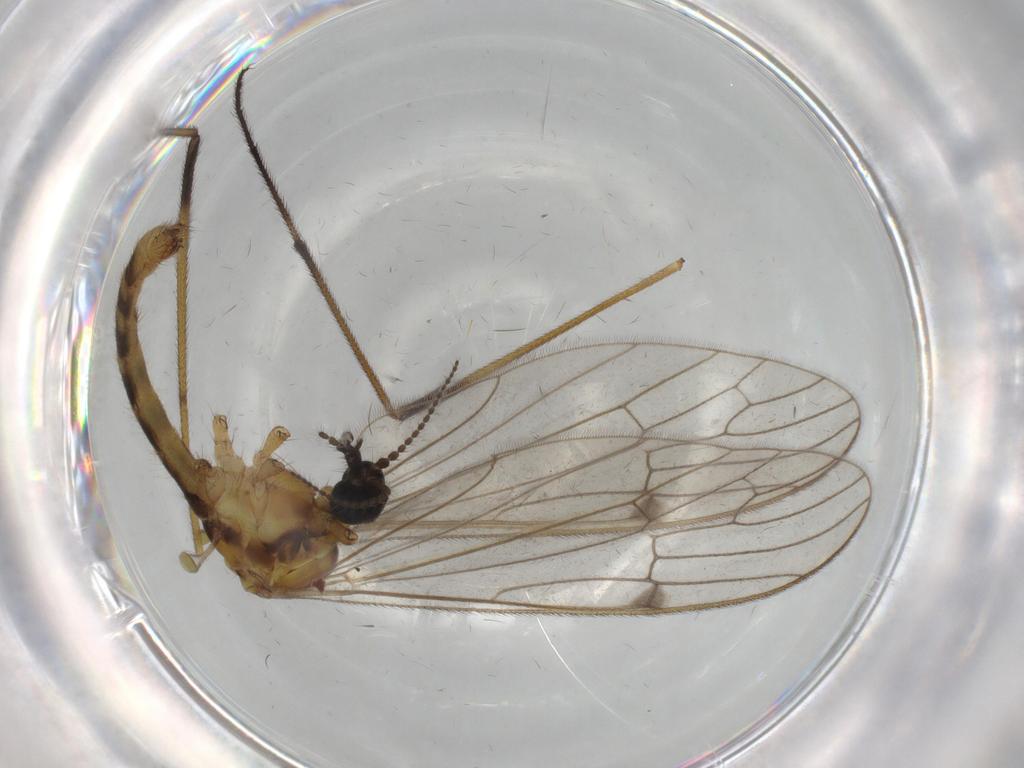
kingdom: Animalia
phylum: Arthropoda
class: Insecta
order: Diptera
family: Limoniidae
